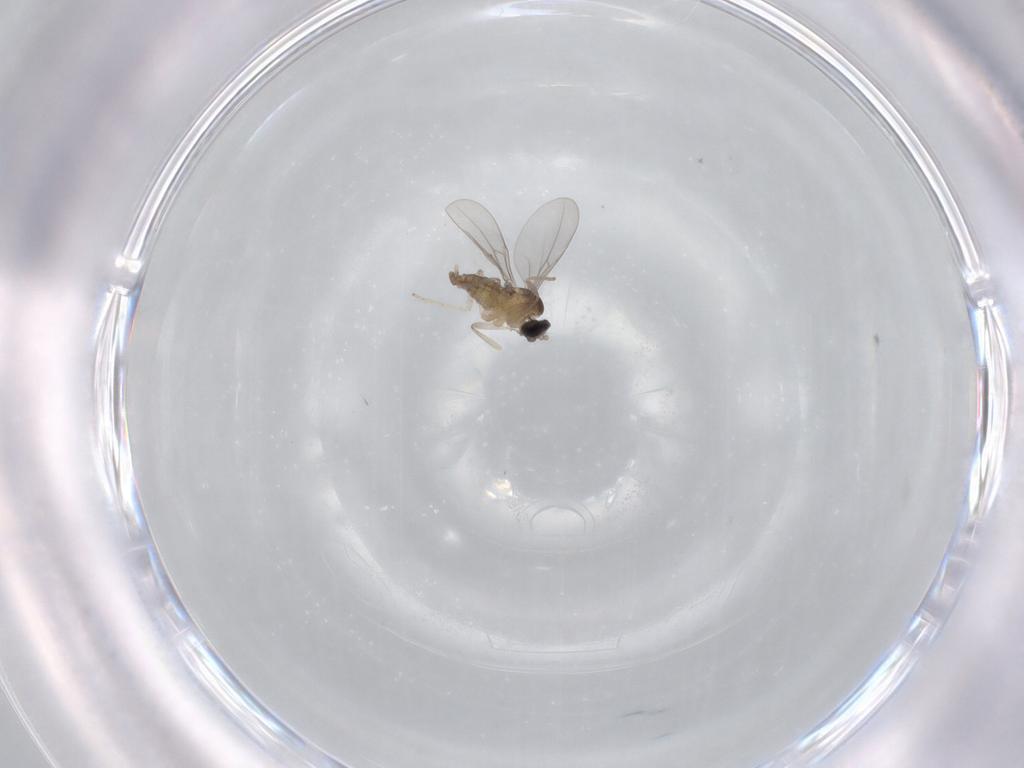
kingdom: Animalia
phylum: Arthropoda
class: Insecta
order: Diptera
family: Cecidomyiidae
